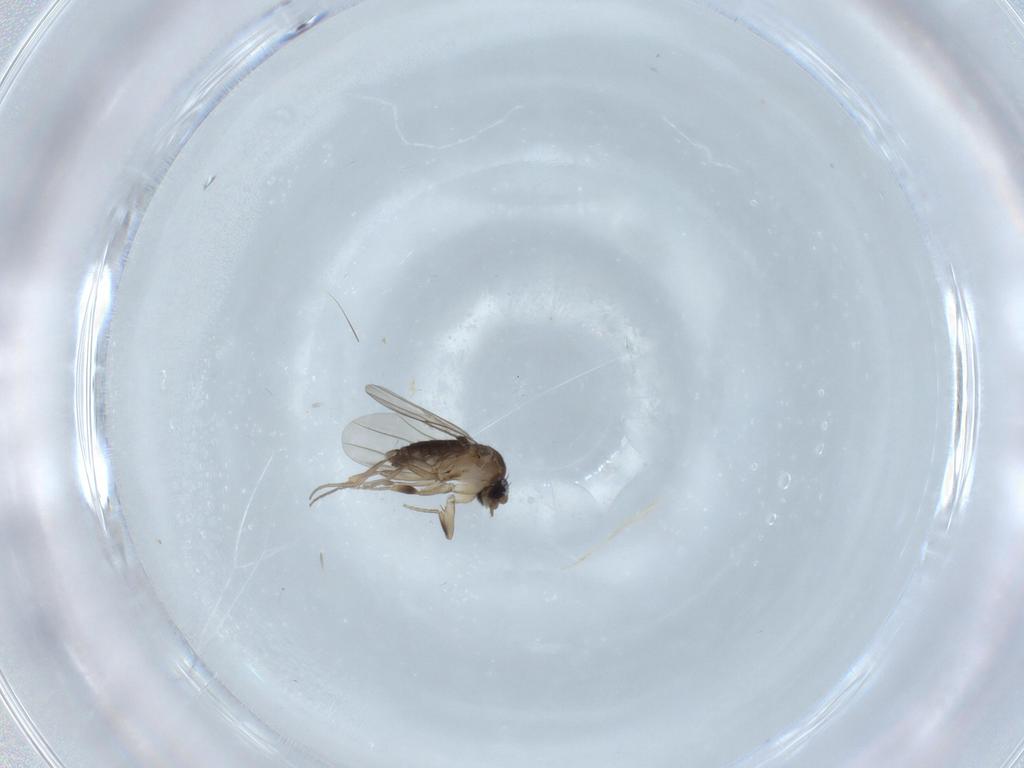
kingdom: Animalia
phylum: Arthropoda
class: Insecta
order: Diptera
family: Phoridae
